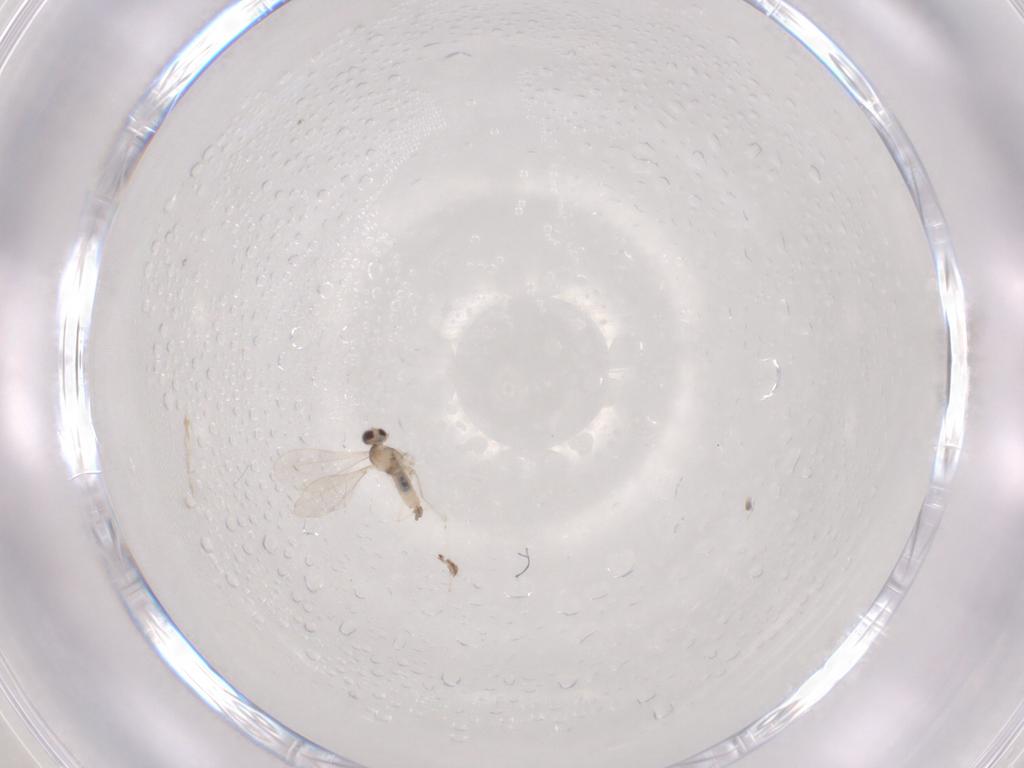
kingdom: Animalia
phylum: Arthropoda
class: Insecta
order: Diptera
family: Cecidomyiidae
